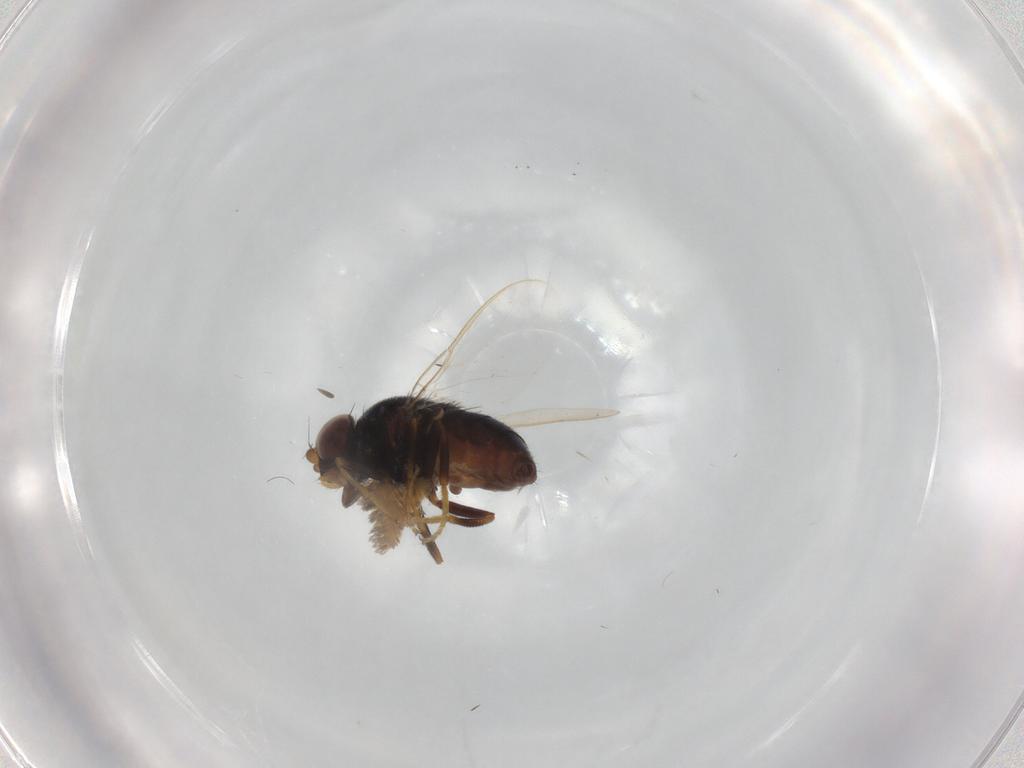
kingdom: Animalia
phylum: Arthropoda
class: Insecta
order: Diptera
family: Chloropidae
